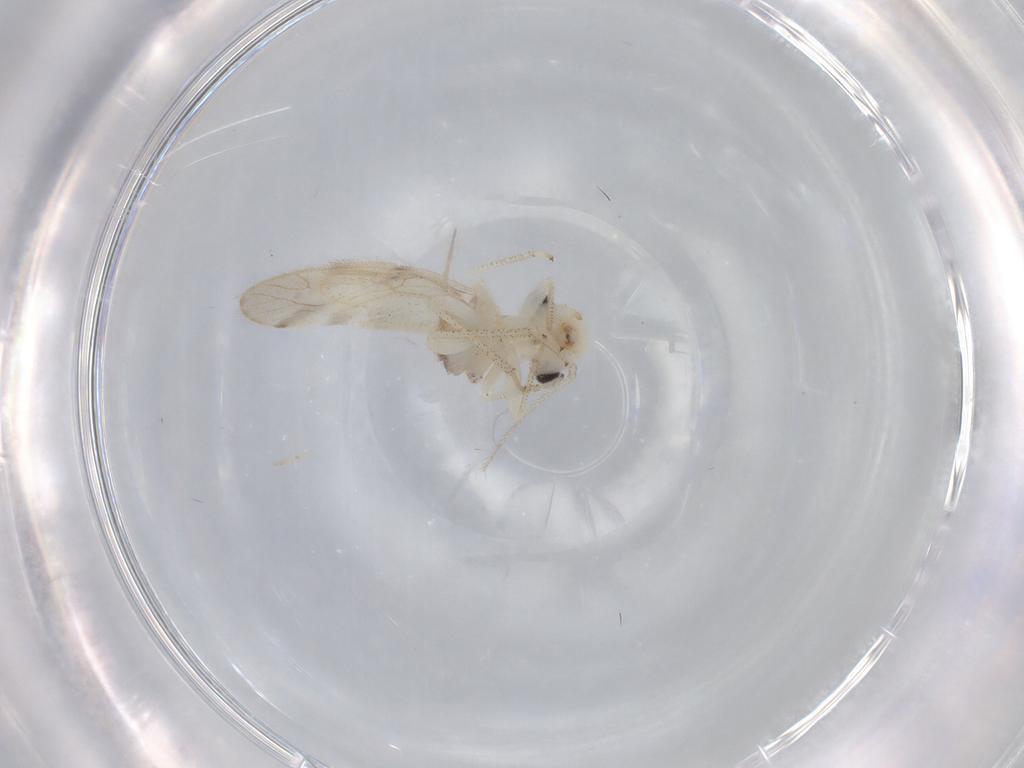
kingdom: Animalia
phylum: Arthropoda
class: Insecta
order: Psocodea
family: Pseudocaeciliidae
